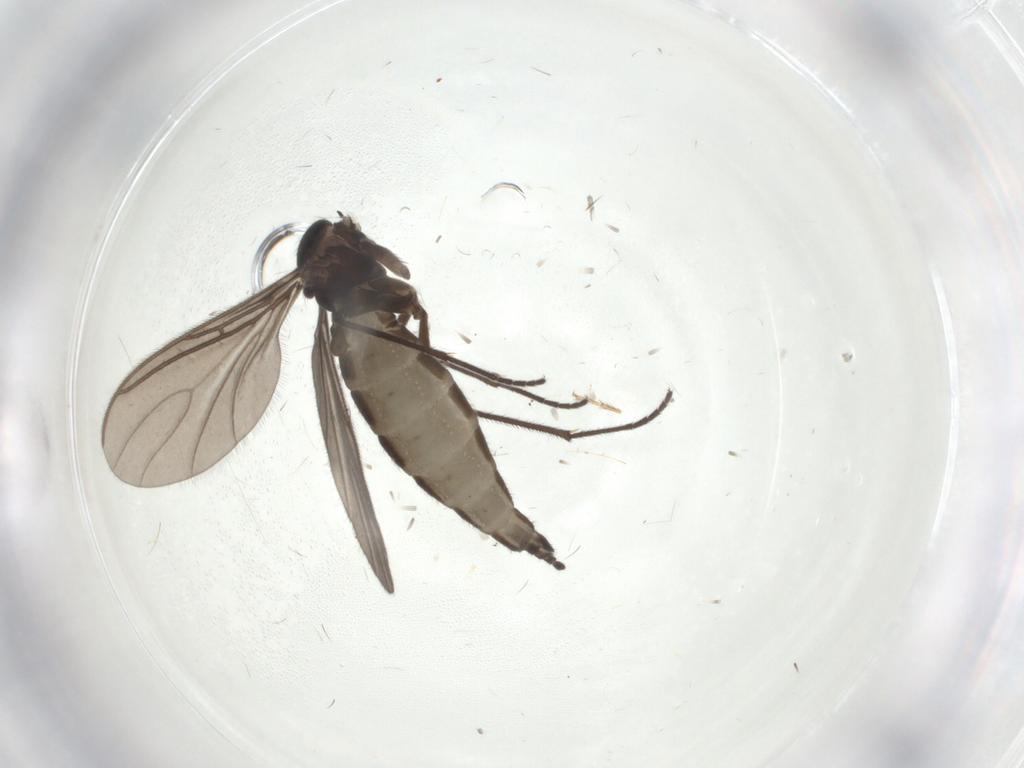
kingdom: Animalia
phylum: Arthropoda
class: Insecta
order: Diptera
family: Sciaridae
